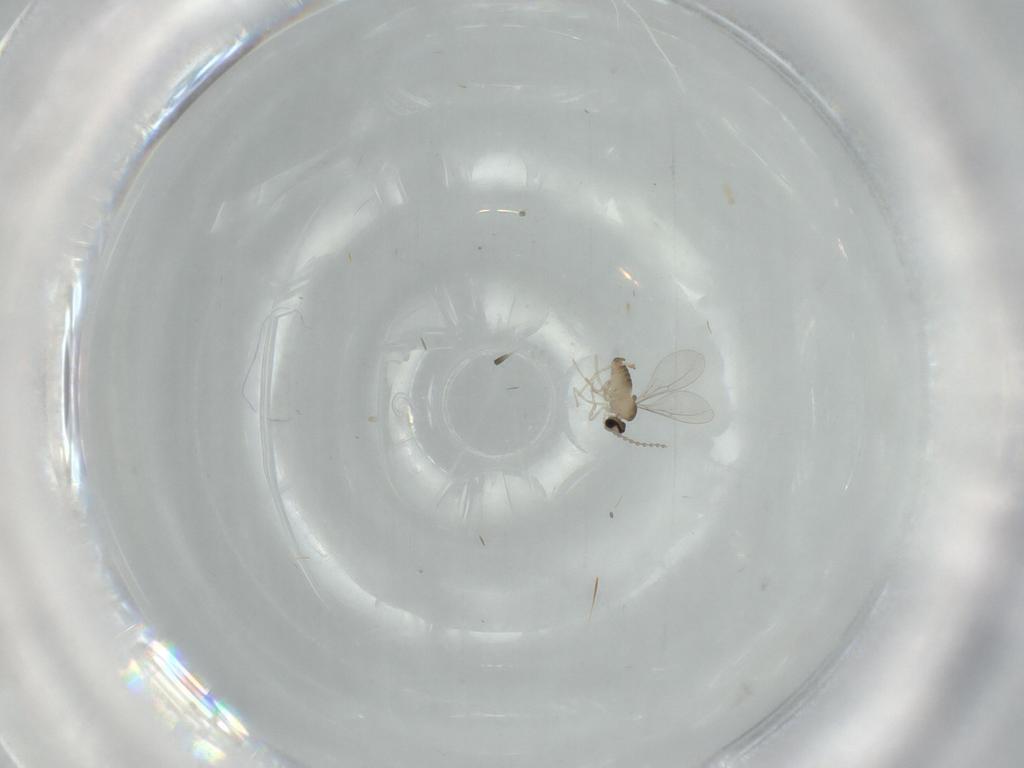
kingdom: Animalia
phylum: Arthropoda
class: Insecta
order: Diptera
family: Cecidomyiidae
